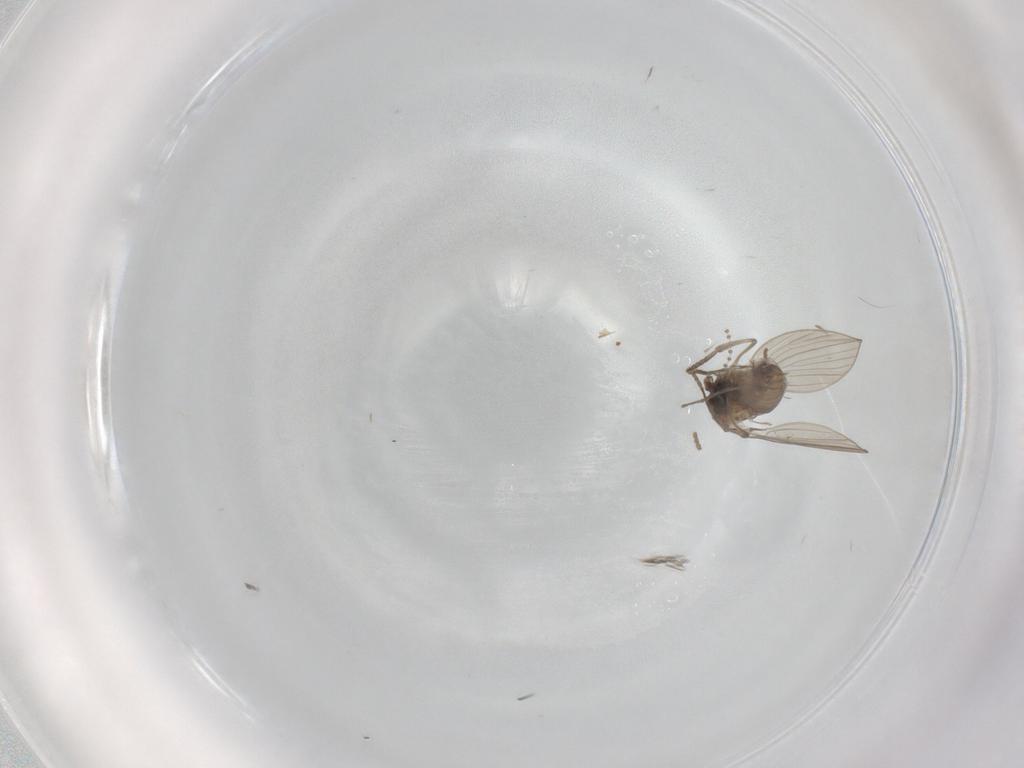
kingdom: Animalia
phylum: Arthropoda
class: Insecta
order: Diptera
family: Psychodidae
